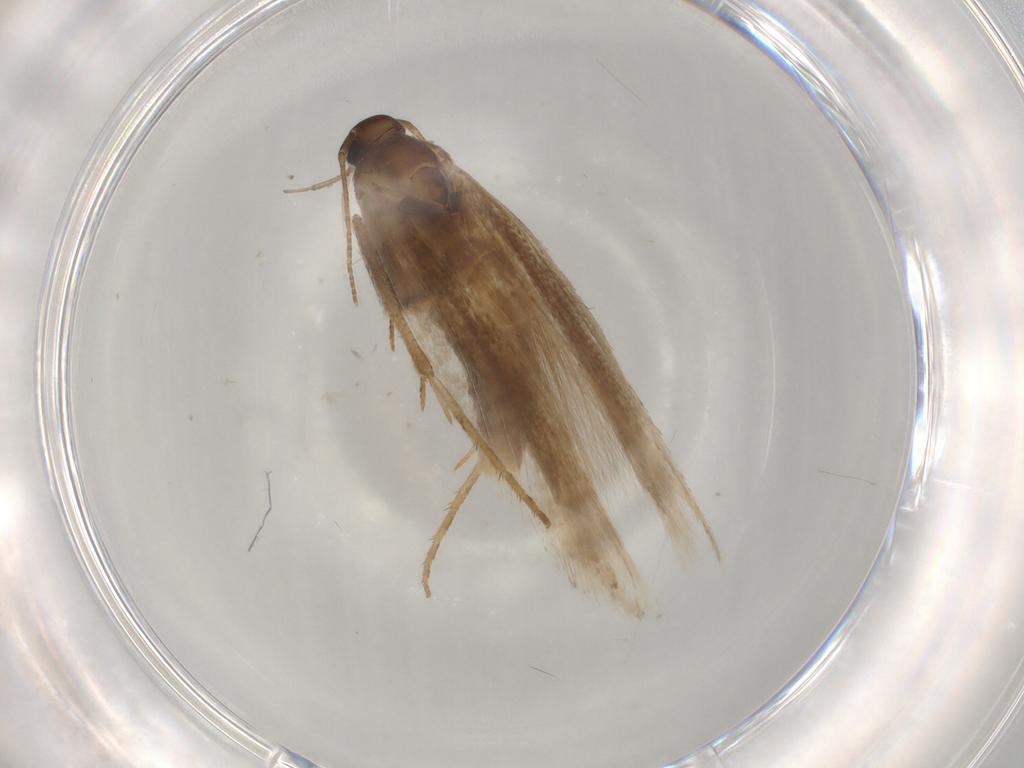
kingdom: Animalia
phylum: Arthropoda
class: Insecta
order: Lepidoptera
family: Gelechiidae
